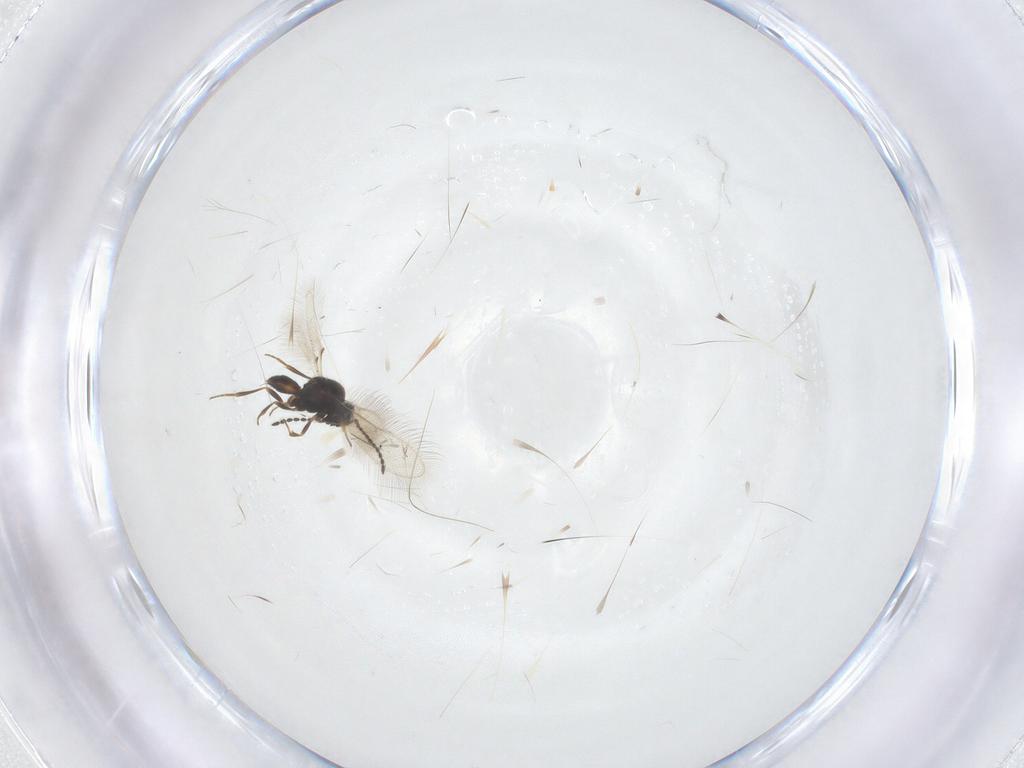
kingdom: Animalia
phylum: Arthropoda
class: Insecta
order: Hymenoptera
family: Scelionidae
